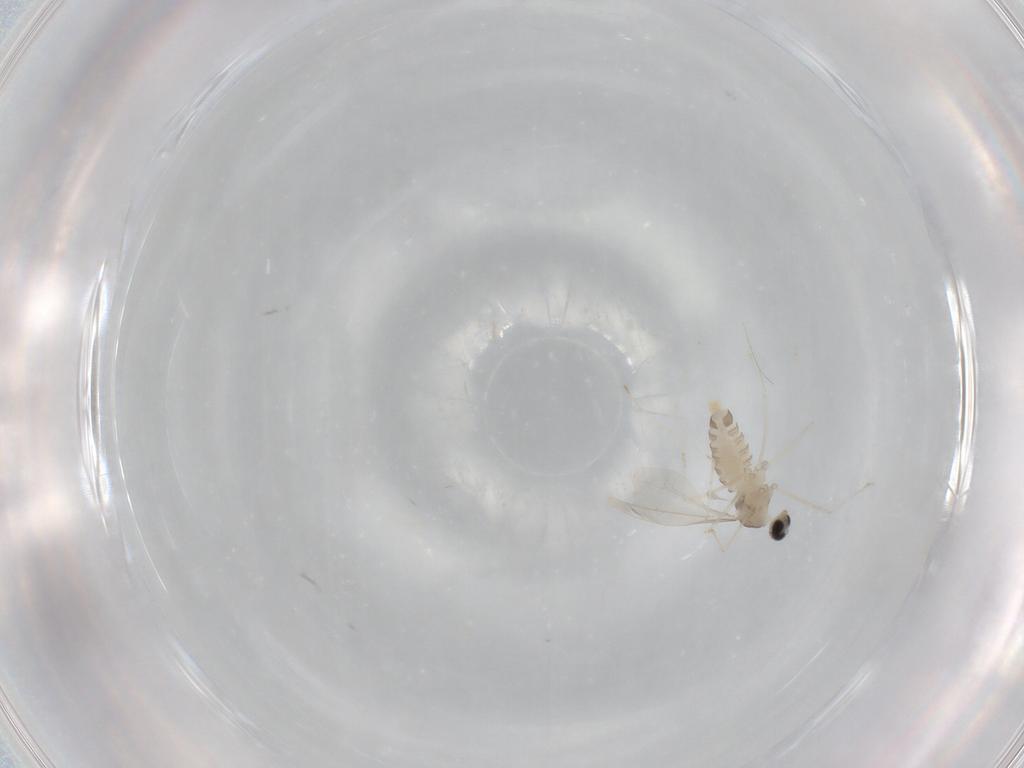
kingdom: Animalia
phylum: Arthropoda
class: Insecta
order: Diptera
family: Cecidomyiidae
